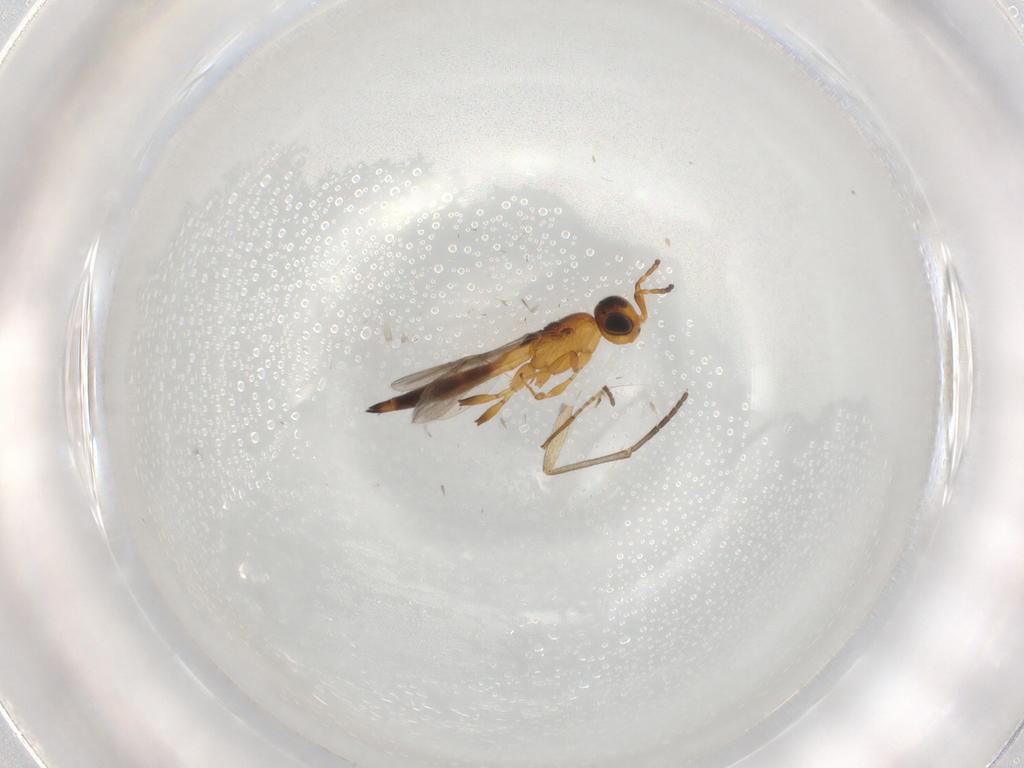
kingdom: Animalia
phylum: Arthropoda
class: Insecta
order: Hymenoptera
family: Scelionidae
